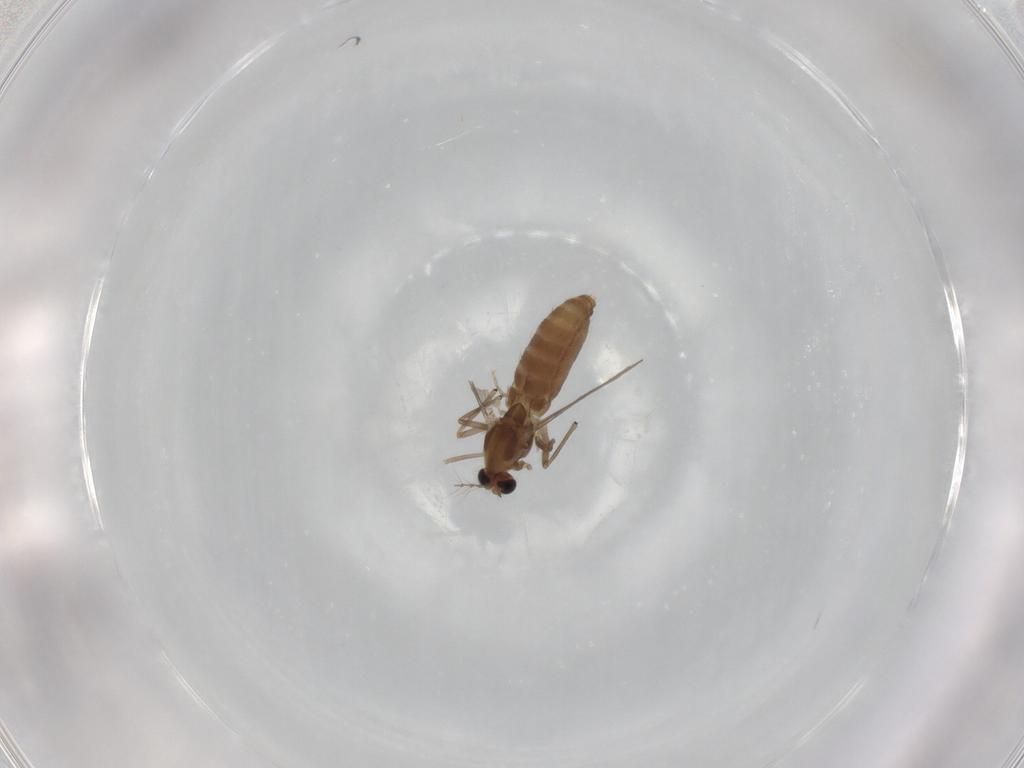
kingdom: Animalia
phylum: Arthropoda
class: Insecta
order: Diptera
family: Chironomidae
